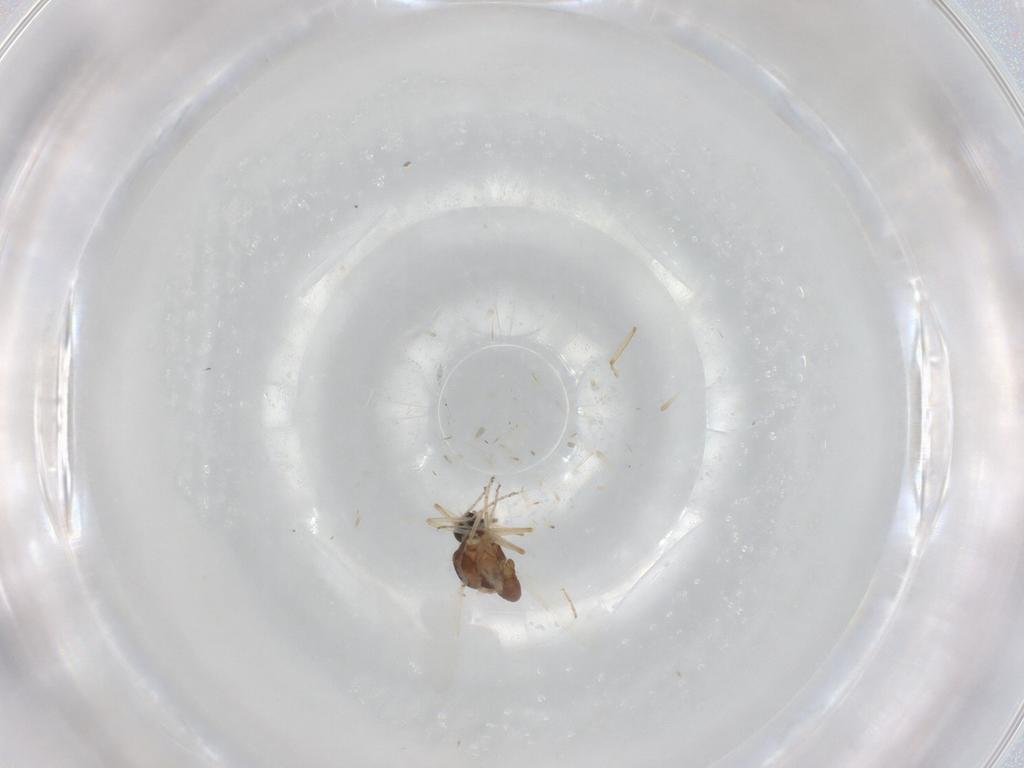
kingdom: Animalia
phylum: Arthropoda
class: Insecta
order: Diptera
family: Ceratopogonidae
